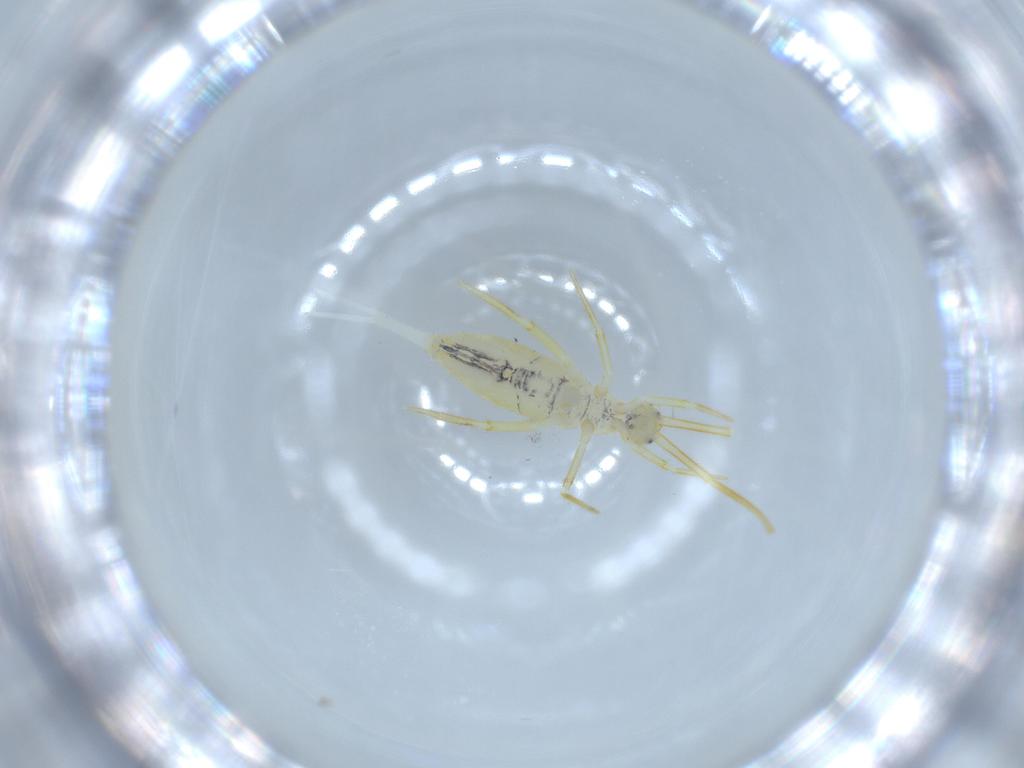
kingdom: Animalia
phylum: Arthropoda
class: Collembola
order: Entomobryomorpha
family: Paronellidae
